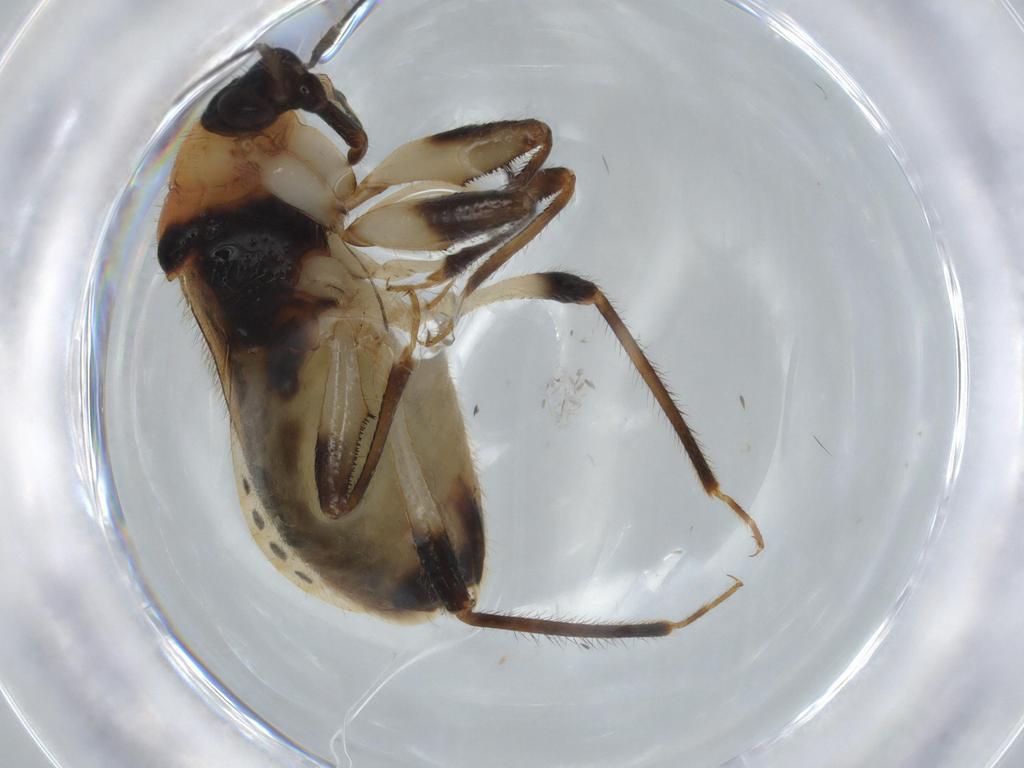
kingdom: Animalia
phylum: Arthropoda
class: Insecta
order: Hemiptera
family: Nabidae
